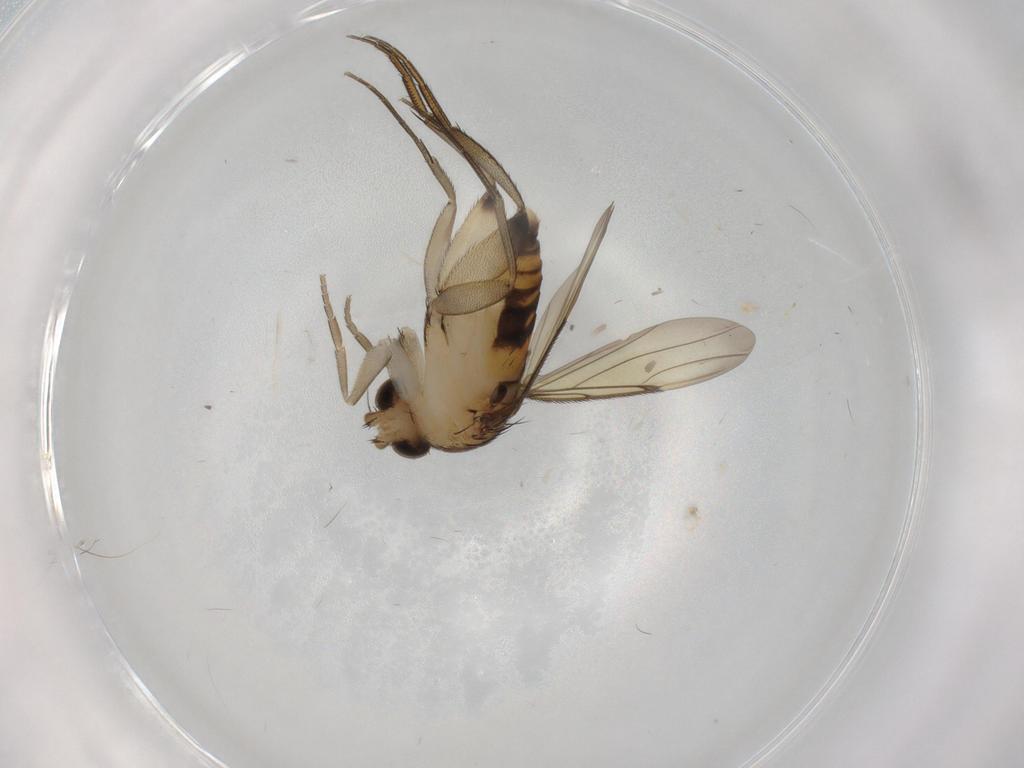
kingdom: Animalia
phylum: Arthropoda
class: Insecta
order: Diptera
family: Phoridae
